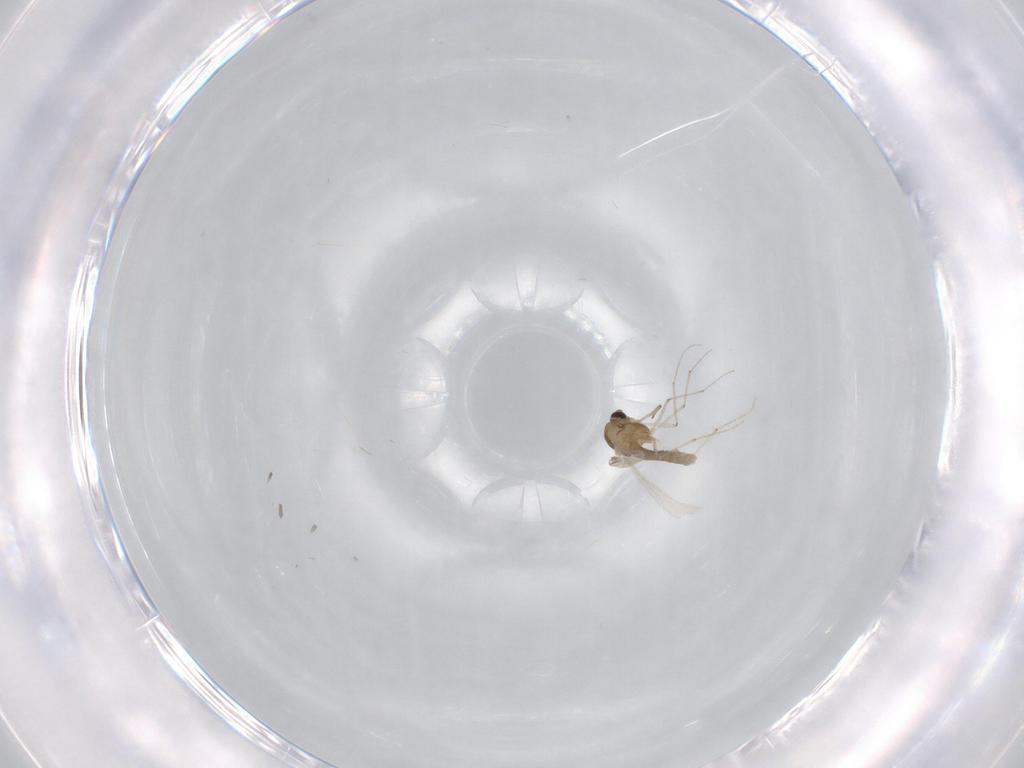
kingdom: Animalia
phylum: Arthropoda
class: Insecta
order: Diptera
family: Chironomidae
